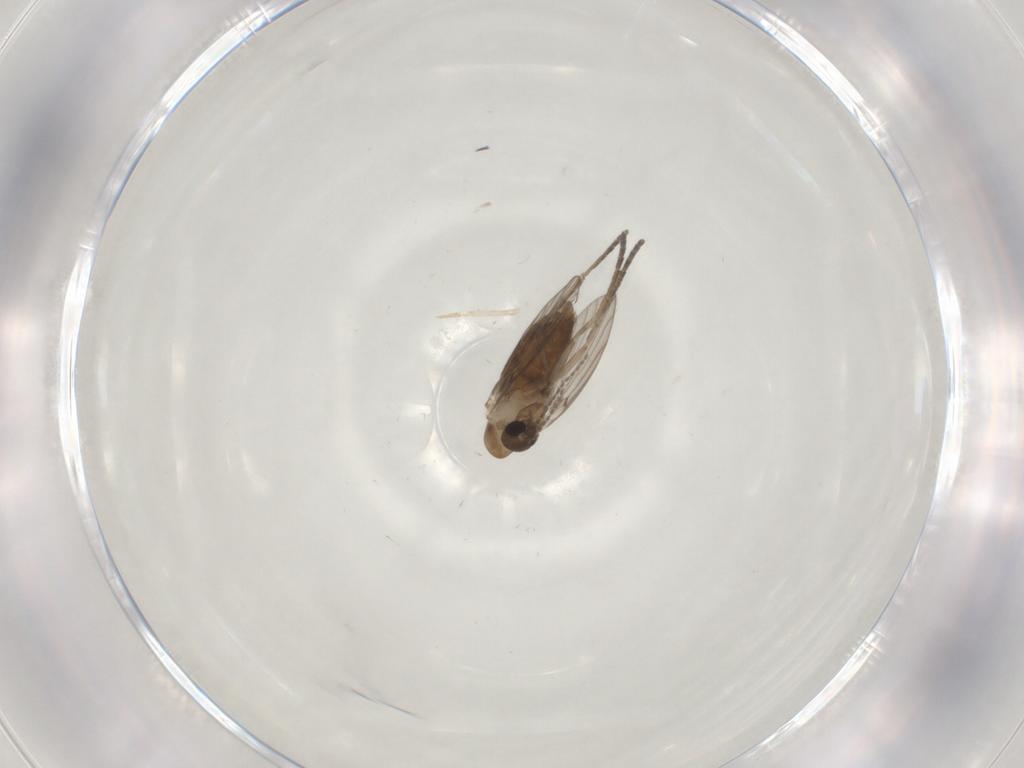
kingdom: Animalia
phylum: Arthropoda
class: Insecta
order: Diptera
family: Psychodidae
